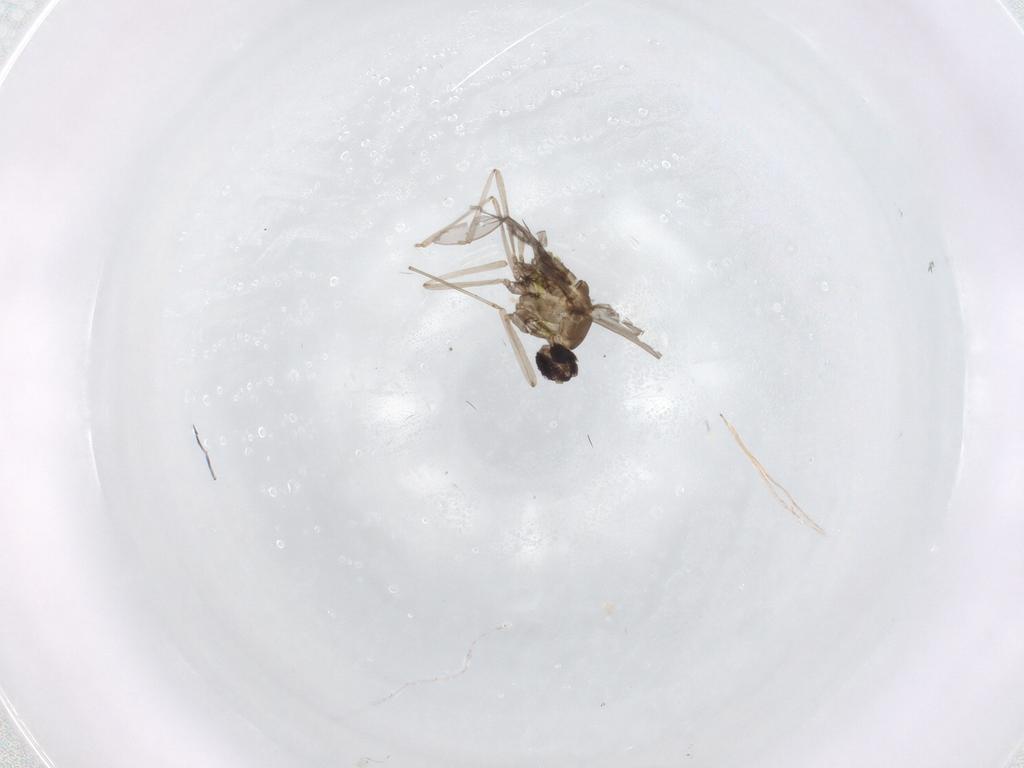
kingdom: Animalia
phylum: Arthropoda
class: Insecta
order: Diptera
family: Cecidomyiidae
